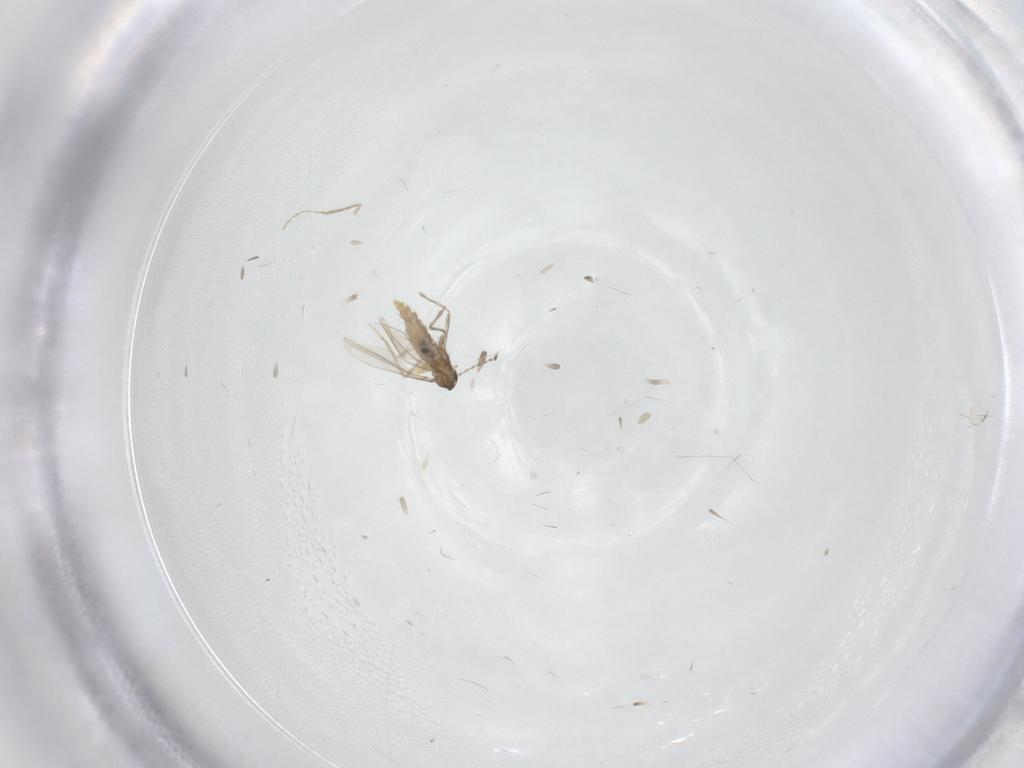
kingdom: Animalia
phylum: Arthropoda
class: Insecta
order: Diptera
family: Cecidomyiidae
